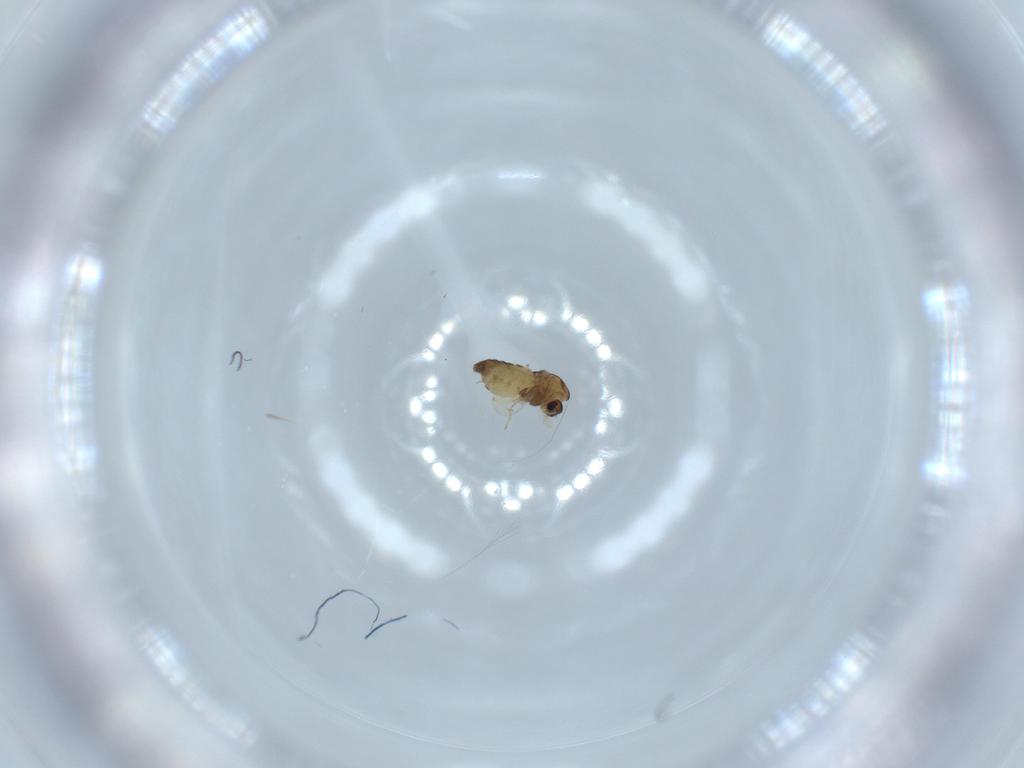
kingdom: Animalia
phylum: Arthropoda
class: Insecta
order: Diptera
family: Chironomidae
